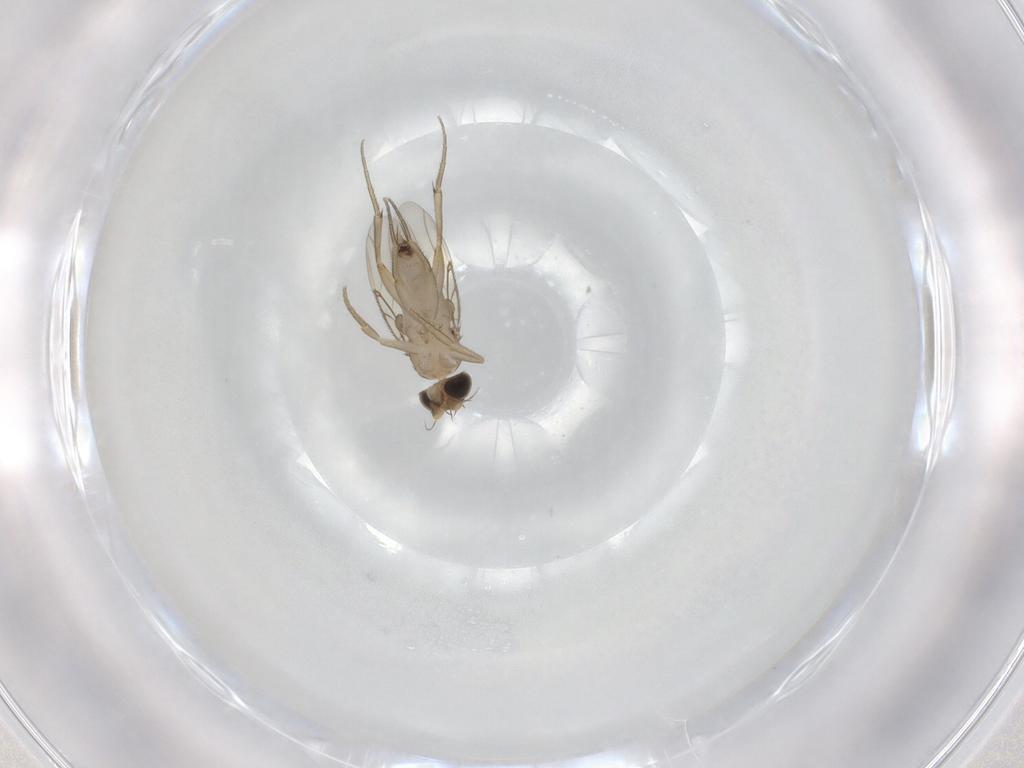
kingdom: Animalia
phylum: Arthropoda
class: Insecta
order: Diptera
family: Phoridae
